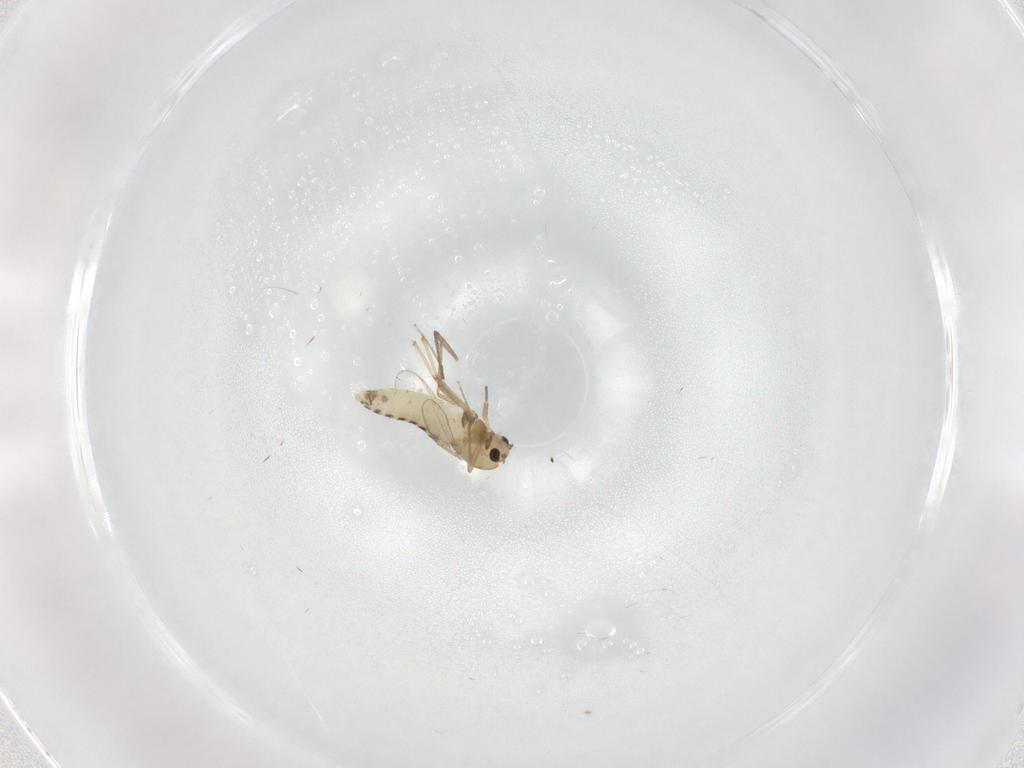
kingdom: Animalia
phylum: Arthropoda
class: Insecta
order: Diptera
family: Chironomidae
